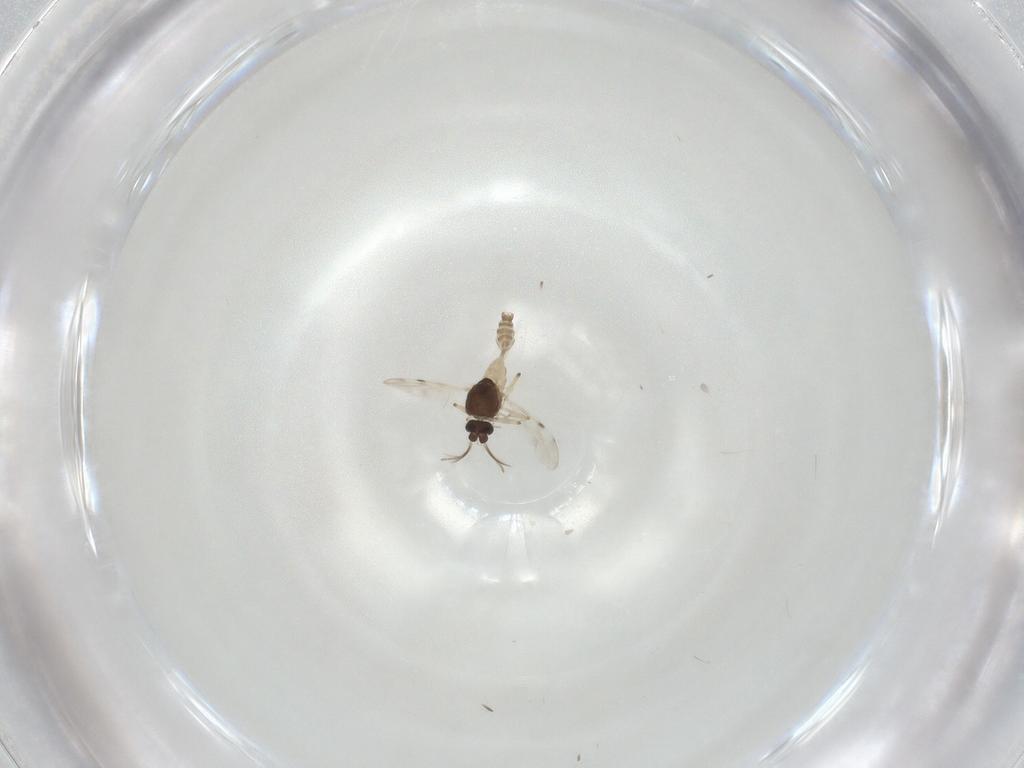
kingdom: Animalia
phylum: Arthropoda
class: Insecta
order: Diptera
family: Scatopsidae
